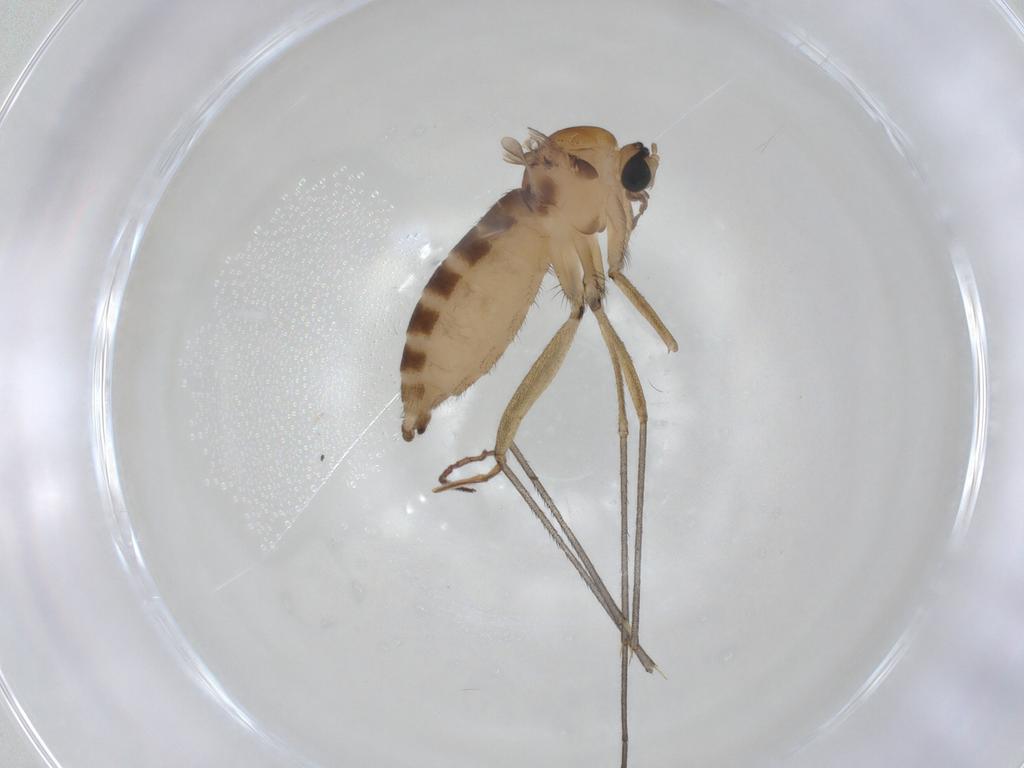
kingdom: Animalia
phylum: Arthropoda
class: Insecta
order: Diptera
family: Sciaridae
